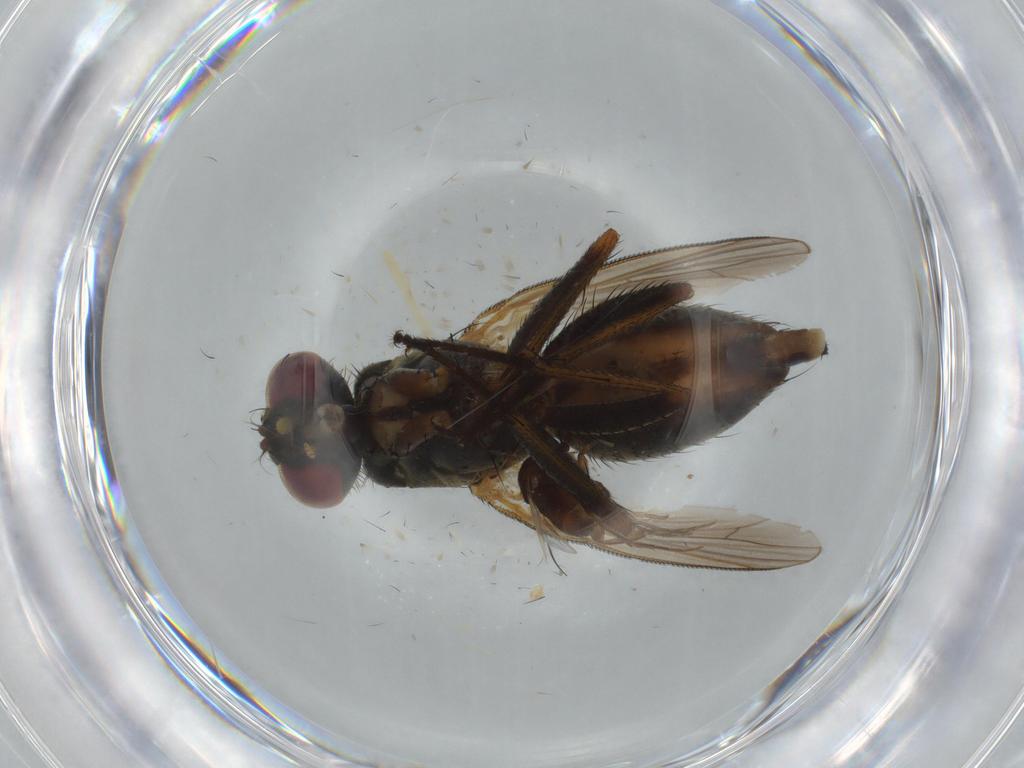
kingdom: Animalia
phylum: Arthropoda
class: Insecta
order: Diptera
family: Muscidae
